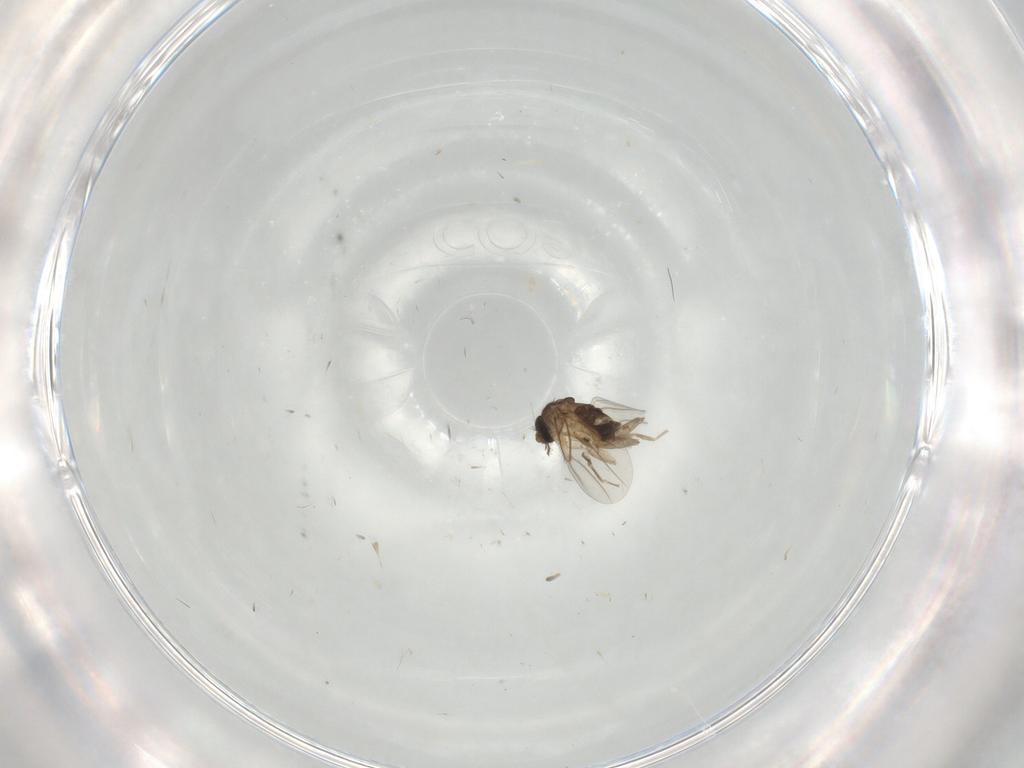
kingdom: Animalia
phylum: Arthropoda
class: Insecta
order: Diptera
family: Phoridae
